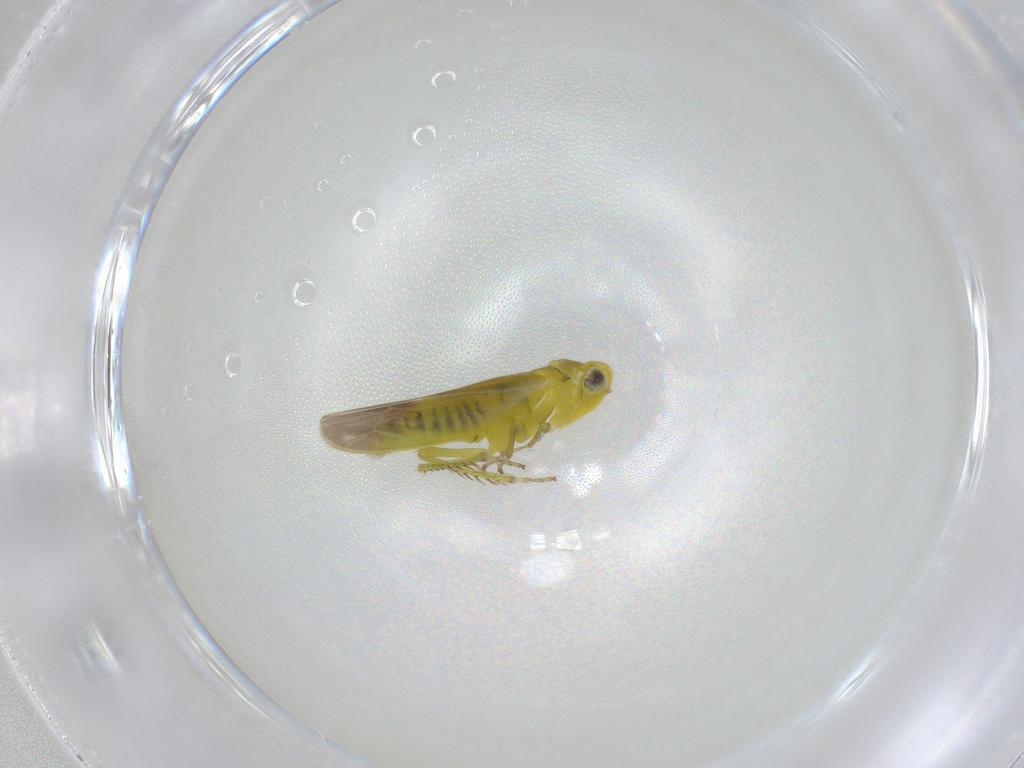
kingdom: Animalia
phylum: Arthropoda
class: Insecta
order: Hemiptera
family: Cicadellidae
